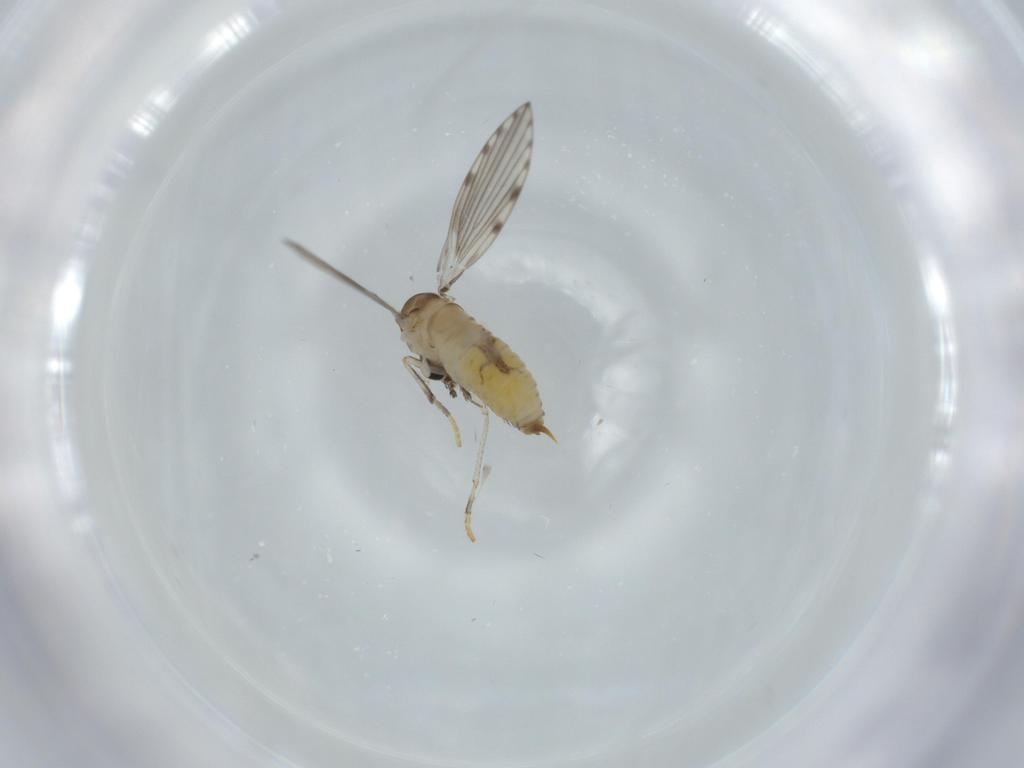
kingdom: Animalia
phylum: Arthropoda
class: Insecta
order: Diptera
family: Psychodidae
